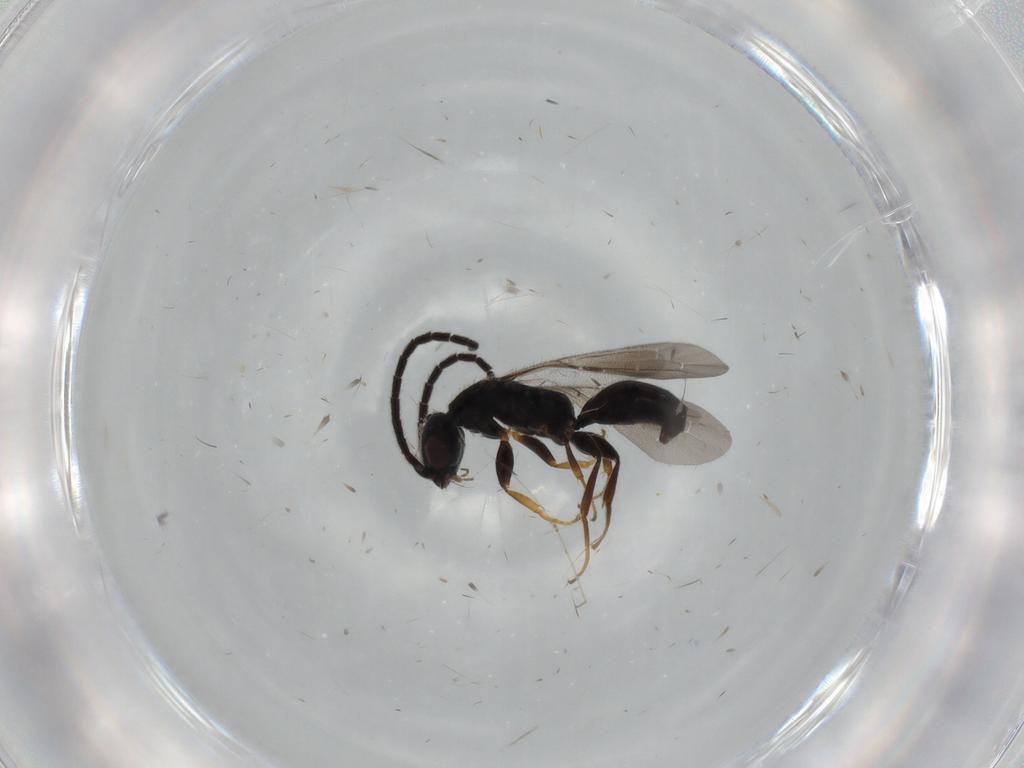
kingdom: Animalia
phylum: Arthropoda
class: Insecta
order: Hymenoptera
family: Bethylidae
